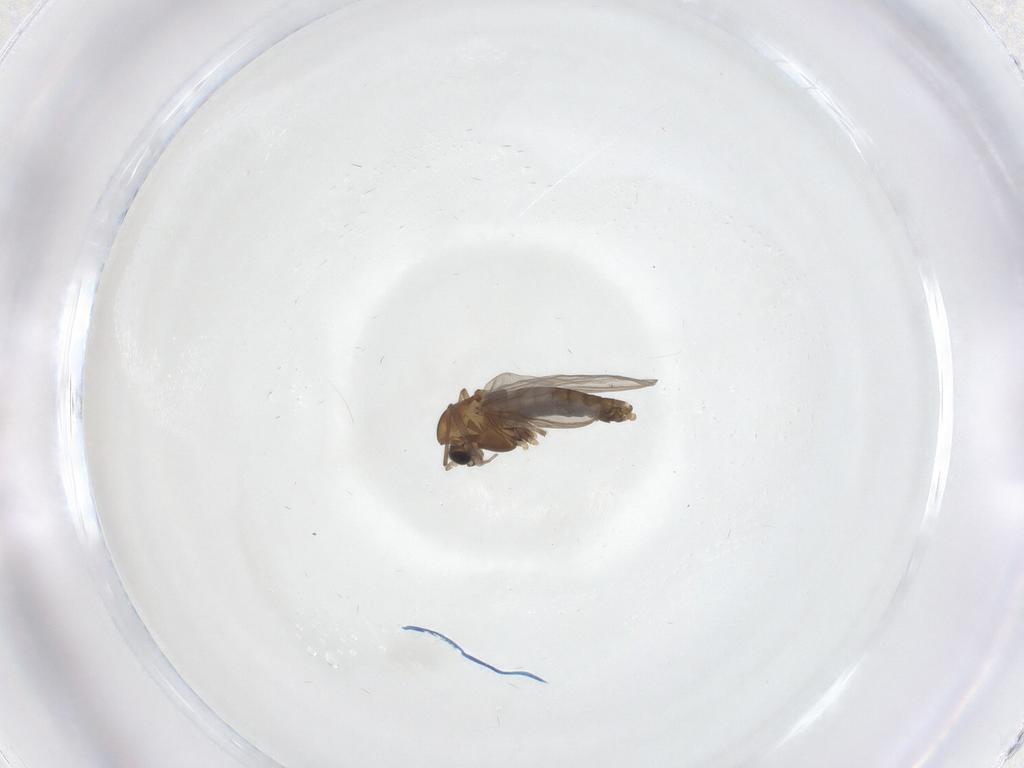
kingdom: Animalia
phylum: Arthropoda
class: Insecta
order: Diptera
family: Chironomidae
